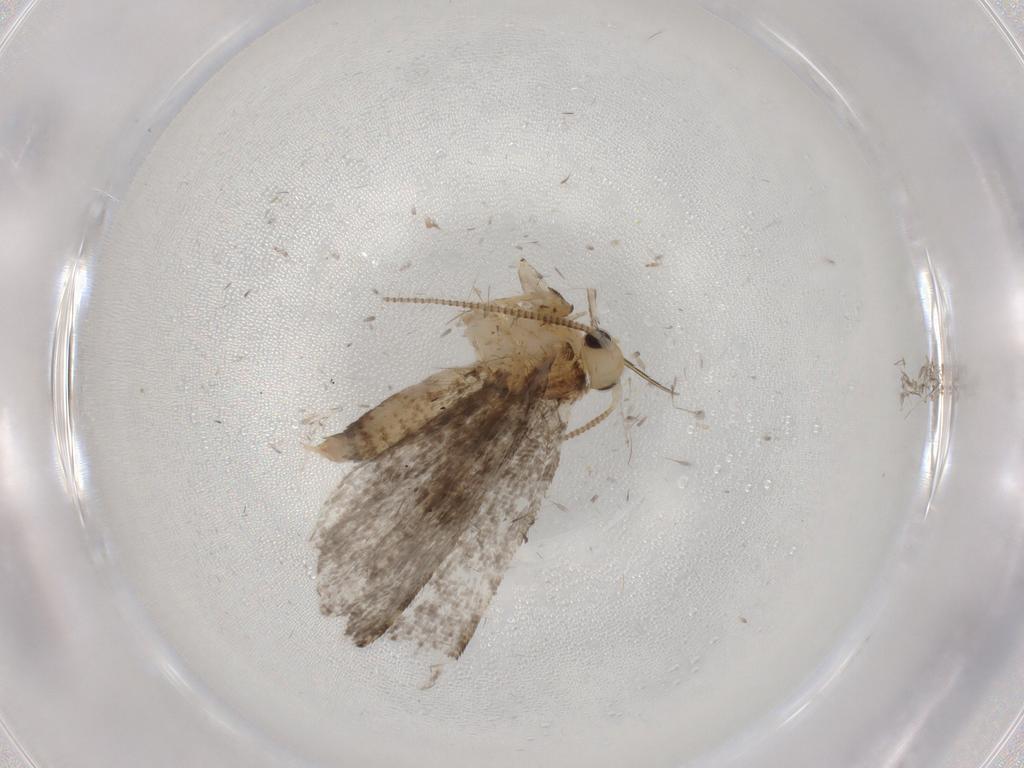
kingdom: Animalia
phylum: Arthropoda
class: Insecta
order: Lepidoptera
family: Tineidae
